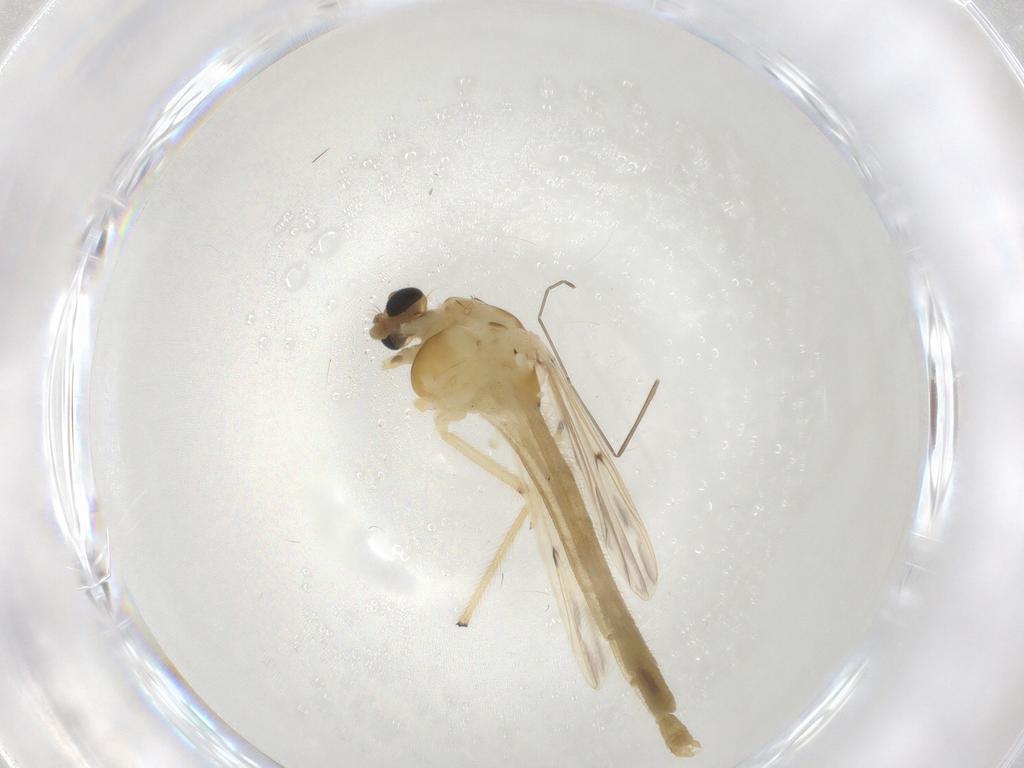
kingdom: Animalia
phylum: Arthropoda
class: Insecta
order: Diptera
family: Chironomidae
